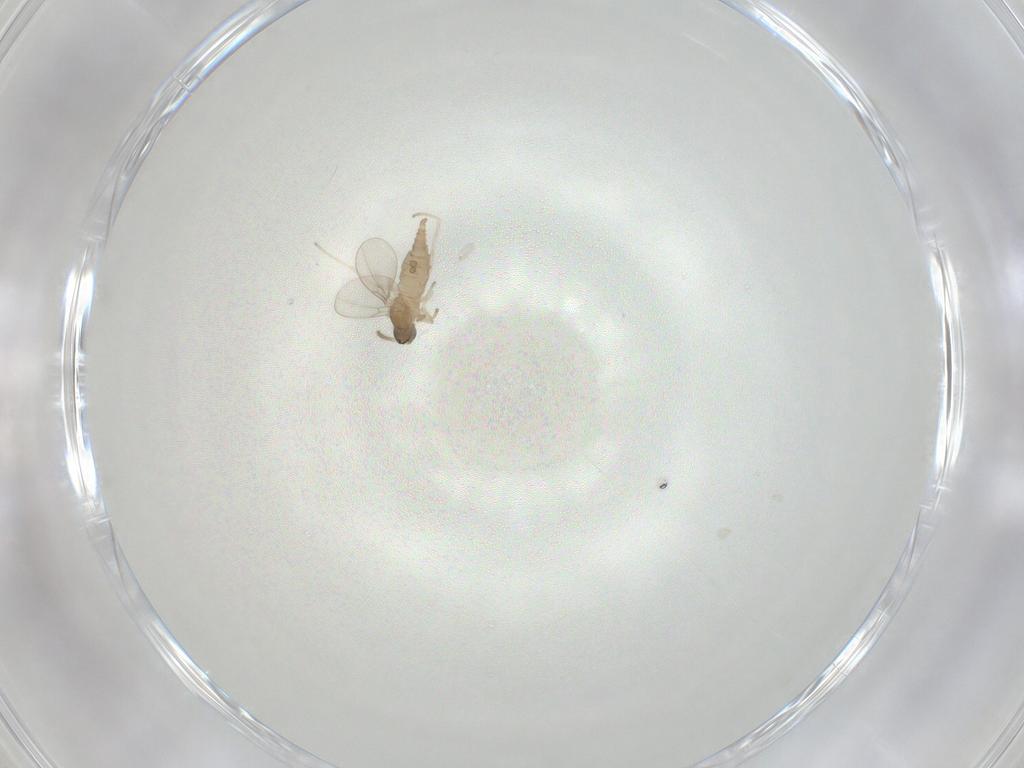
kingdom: Animalia
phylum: Arthropoda
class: Insecta
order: Diptera
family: Cecidomyiidae
